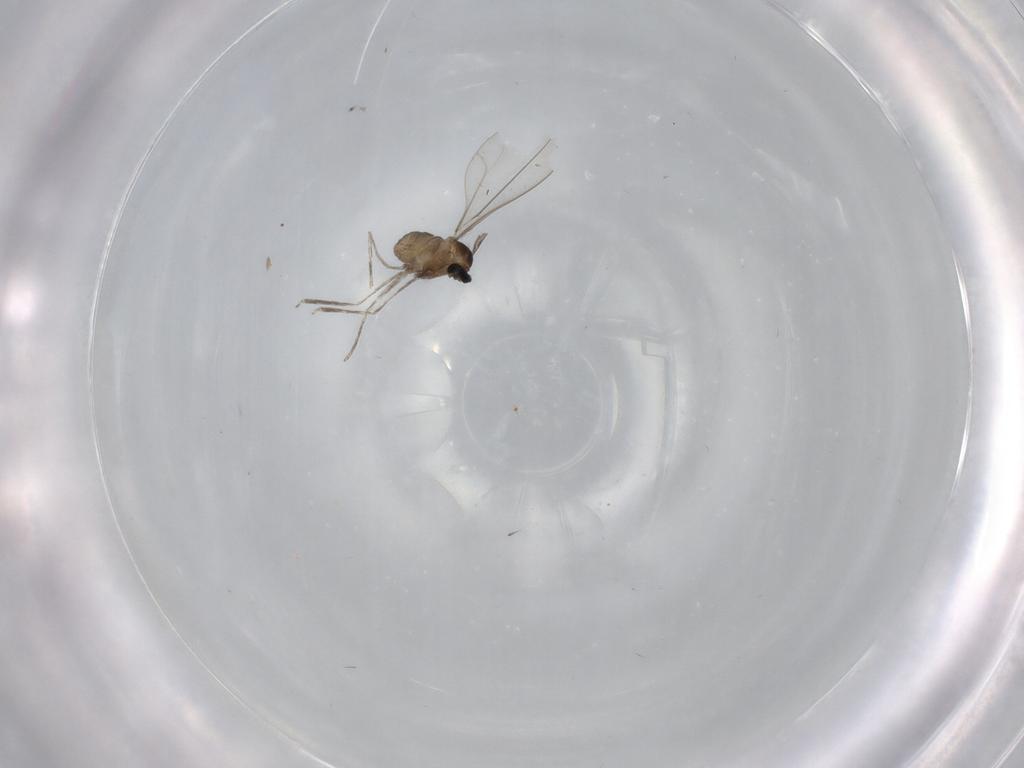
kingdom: Animalia
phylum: Arthropoda
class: Insecta
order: Diptera
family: Cecidomyiidae
